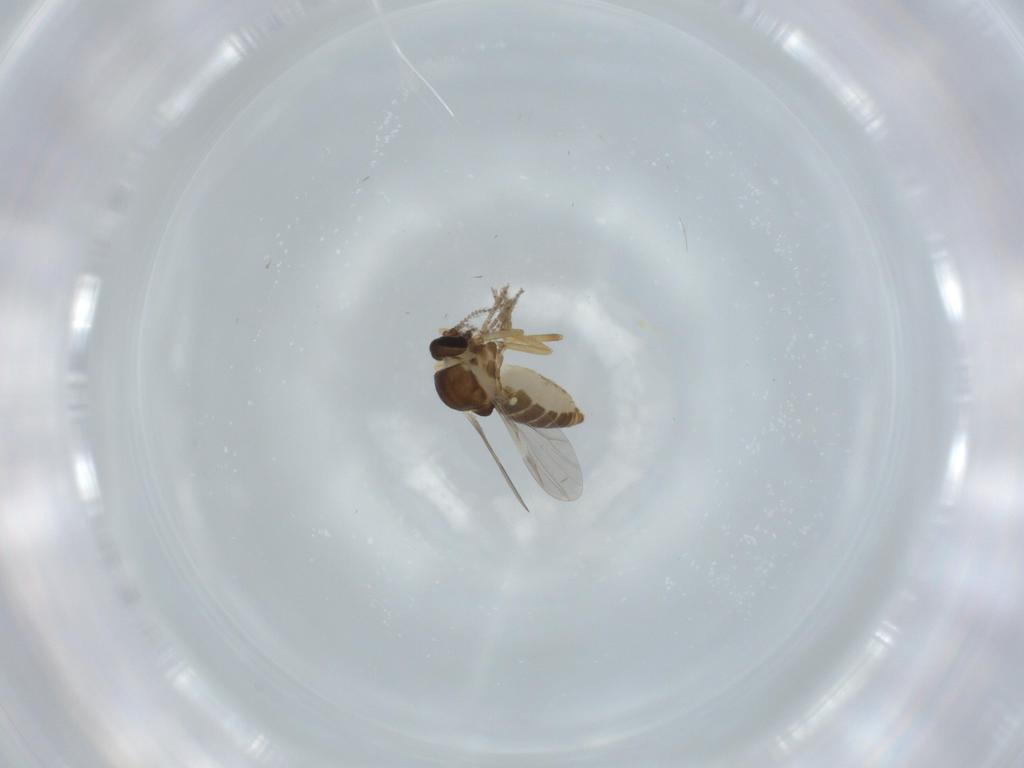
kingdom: Animalia
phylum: Arthropoda
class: Insecta
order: Diptera
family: Ceratopogonidae
